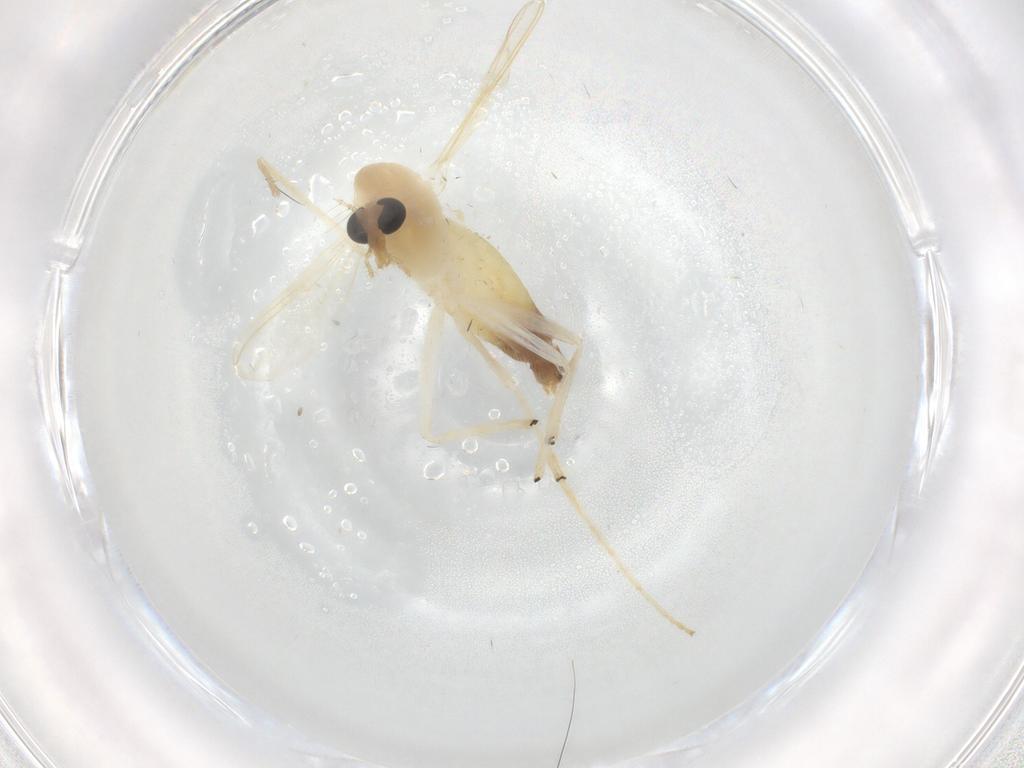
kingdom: Animalia
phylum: Arthropoda
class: Insecta
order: Diptera
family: Chironomidae
